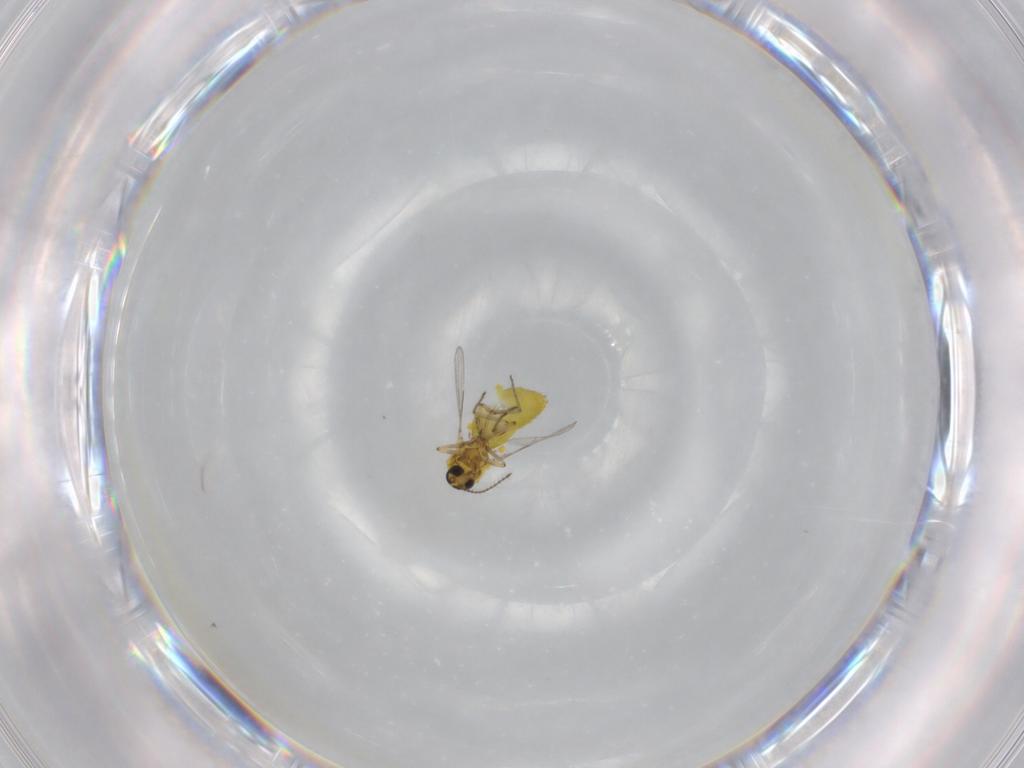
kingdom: Animalia
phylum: Arthropoda
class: Insecta
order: Diptera
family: Ceratopogonidae
